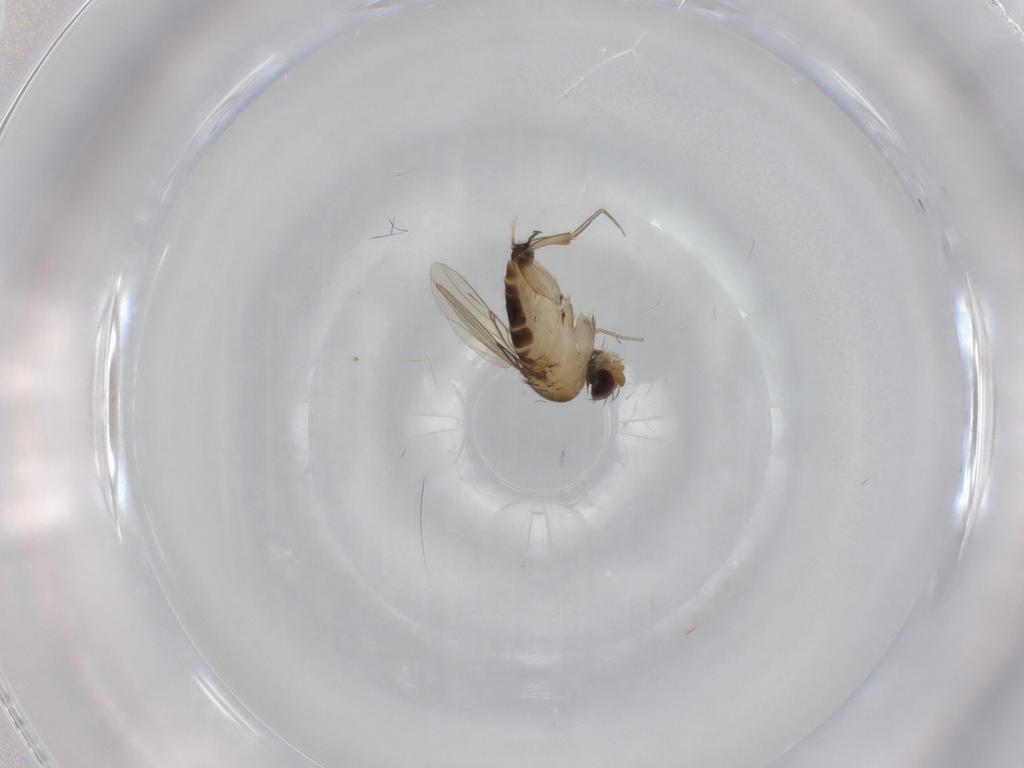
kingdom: Animalia
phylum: Arthropoda
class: Insecta
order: Diptera
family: Phoridae
